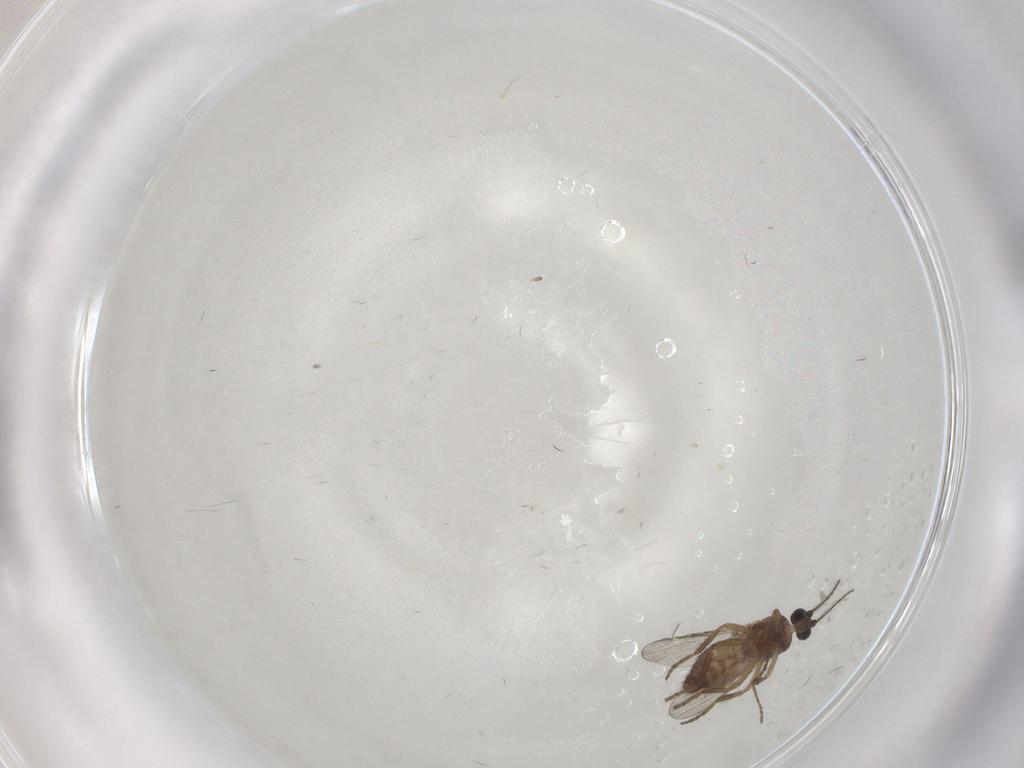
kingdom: Animalia
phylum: Arthropoda
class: Insecta
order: Diptera
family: Ceratopogonidae
